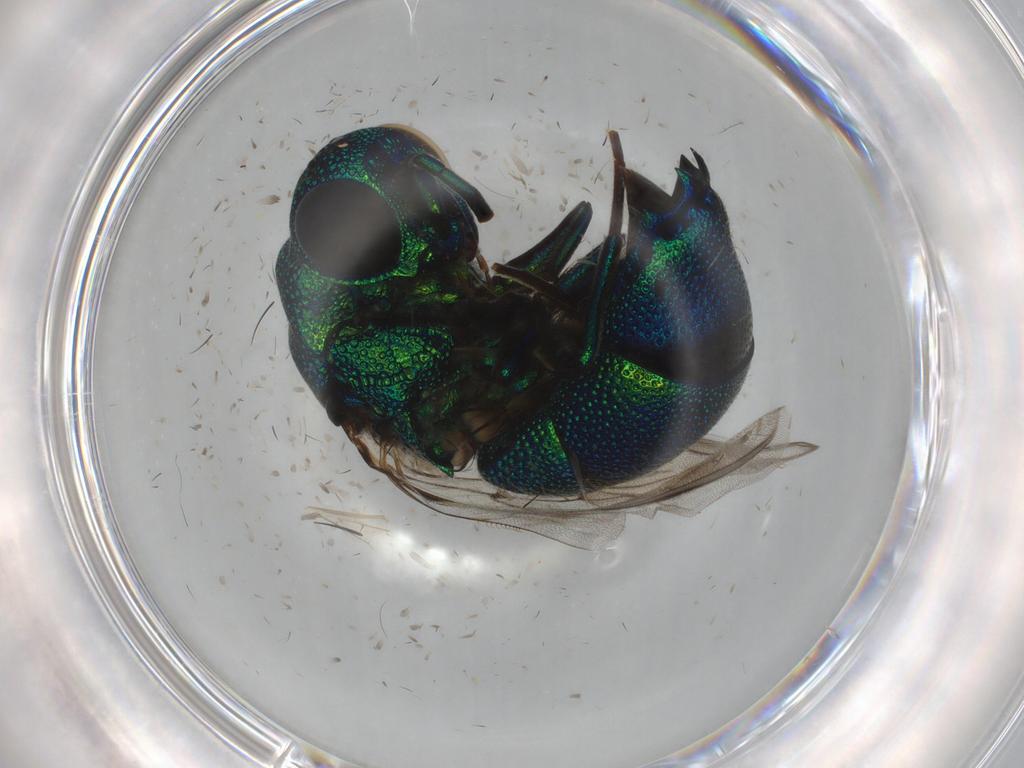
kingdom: Animalia
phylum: Arthropoda
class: Insecta
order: Hymenoptera
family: Chrysididae
